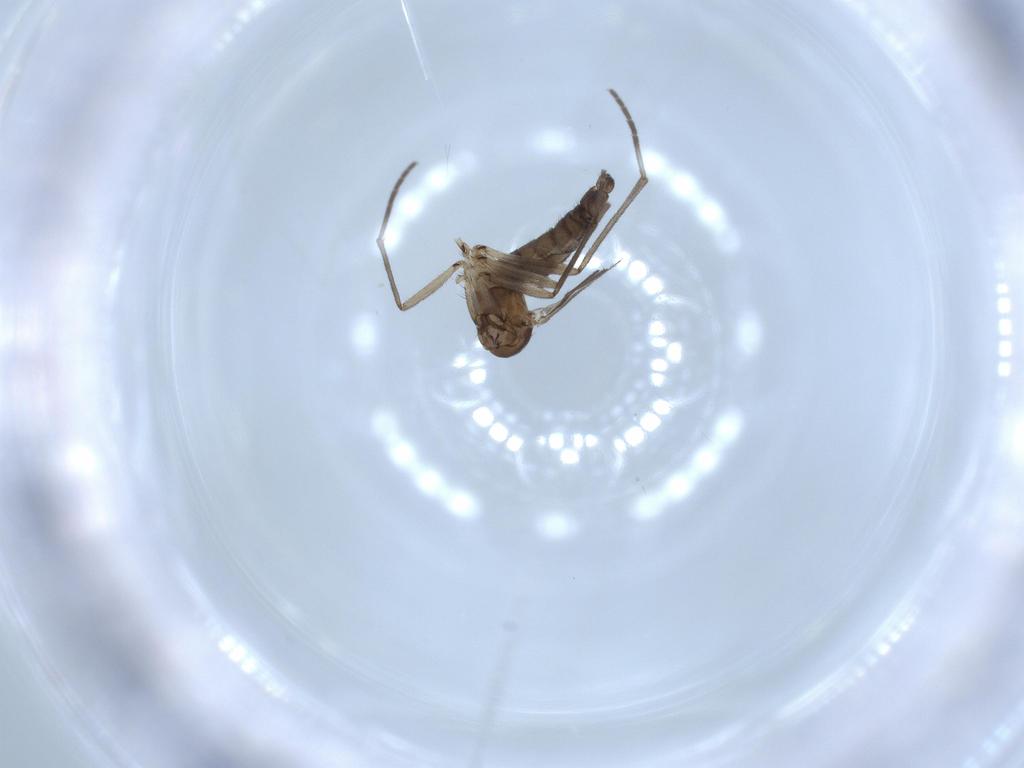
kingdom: Animalia
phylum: Arthropoda
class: Insecta
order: Diptera
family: Sciaridae
